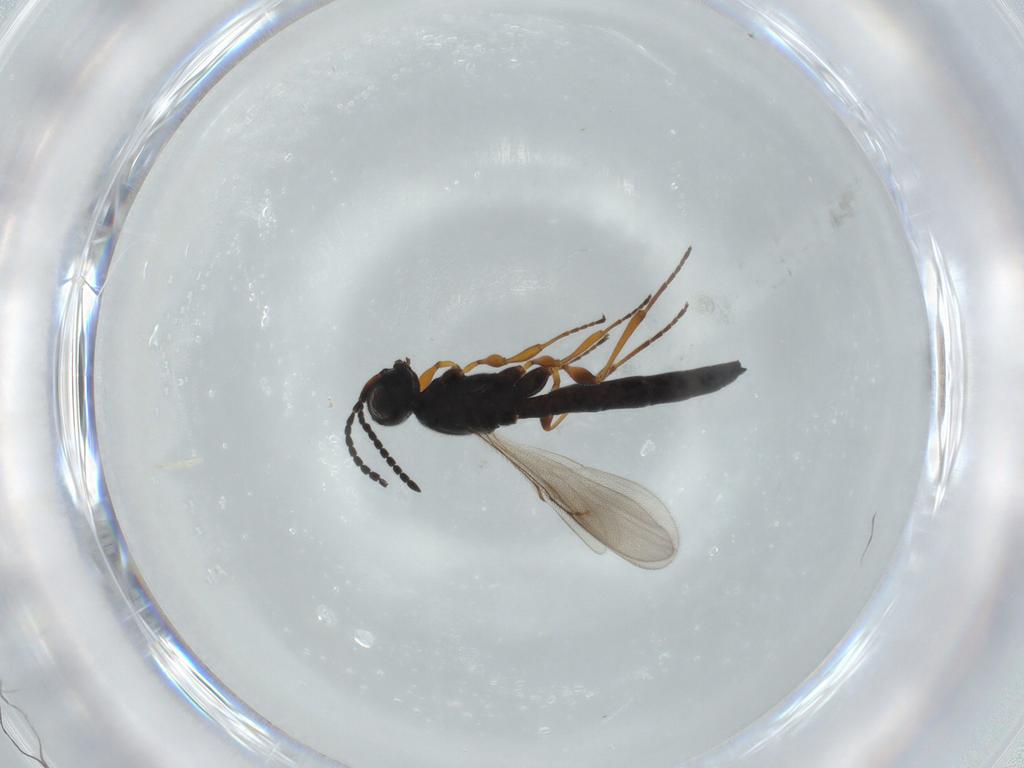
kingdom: Animalia
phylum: Arthropoda
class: Insecta
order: Hymenoptera
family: Scelionidae
